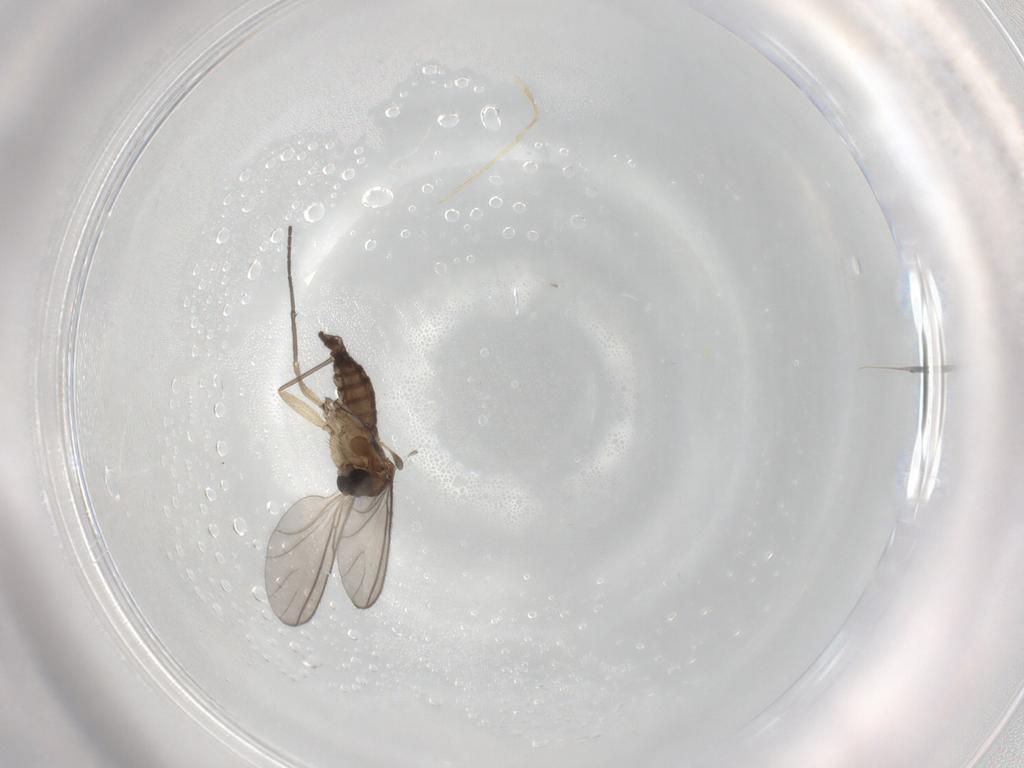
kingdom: Animalia
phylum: Arthropoda
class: Insecta
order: Diptera
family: Sciaridae
